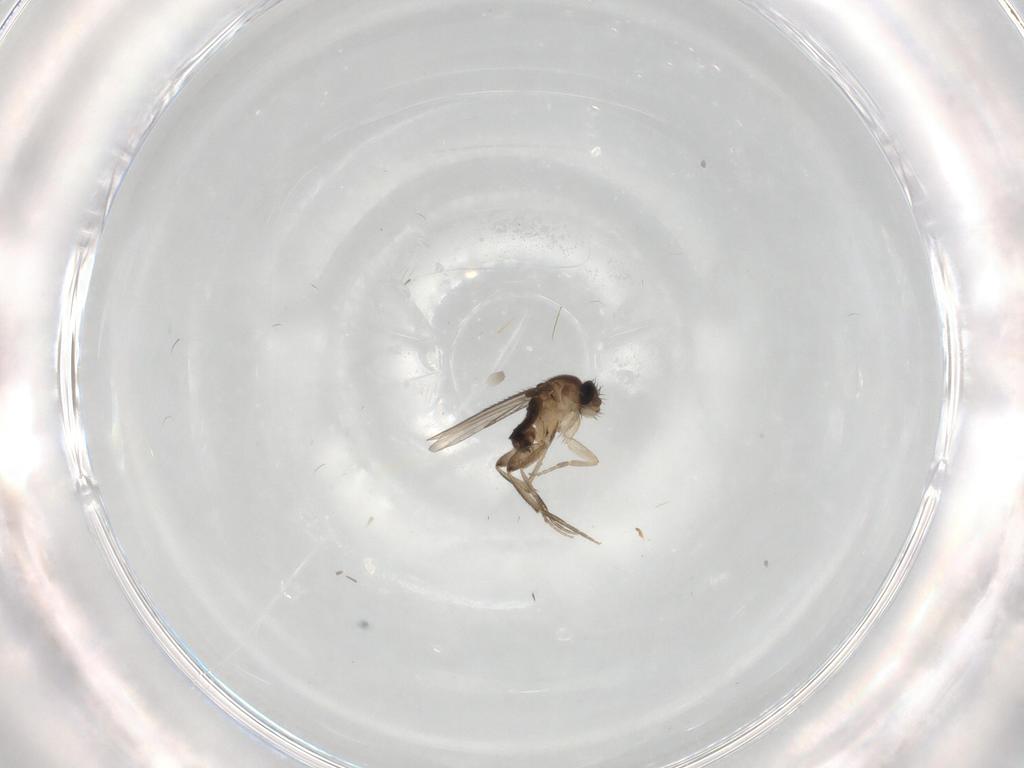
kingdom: Animalia
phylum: Arthropoda
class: Insecta
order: Diptera
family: Phoridae
